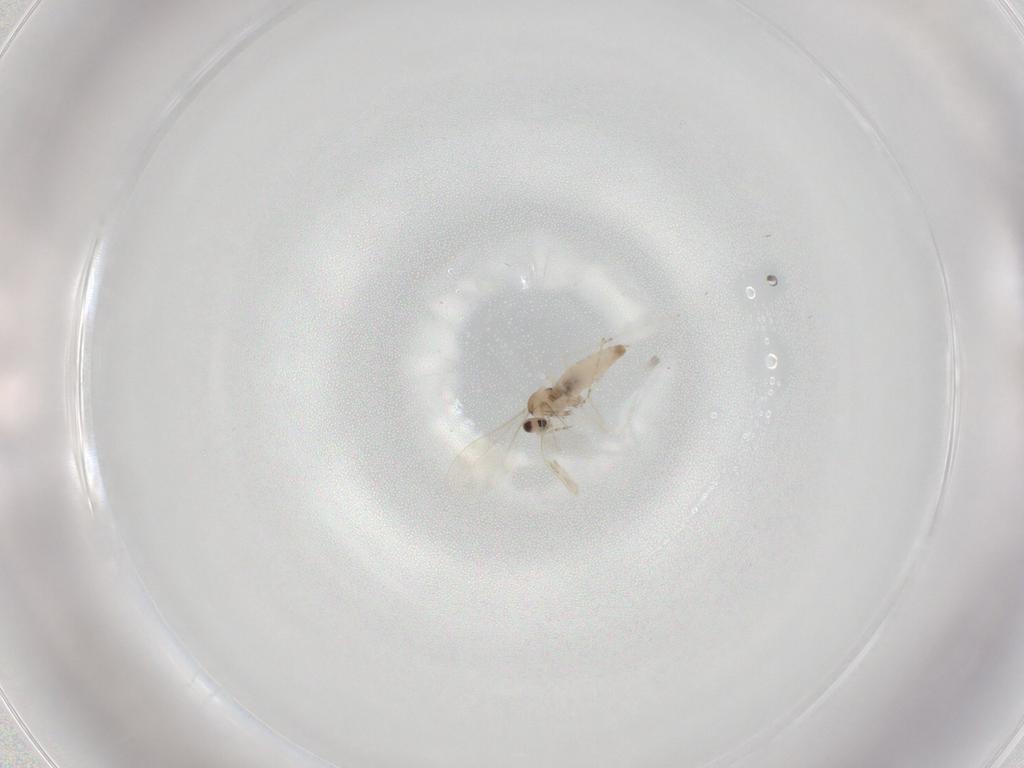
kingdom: Animalia
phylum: Arthropoda
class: Insecta
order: Diptera
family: Phoridae
